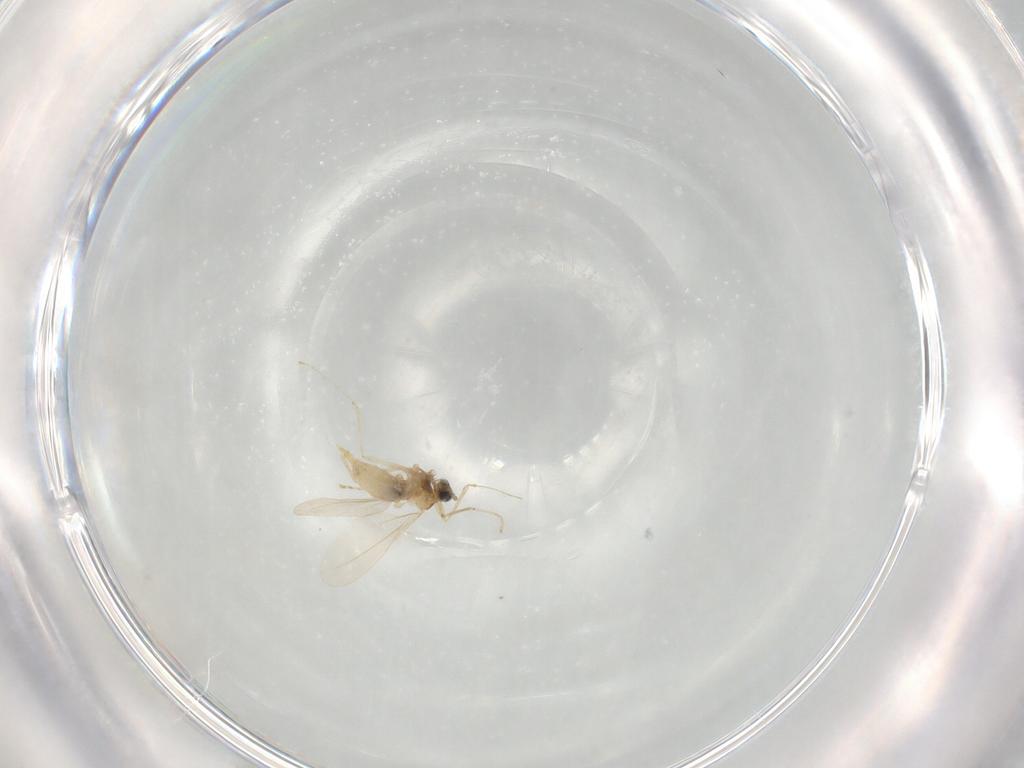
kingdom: Animalia
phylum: Arthropoda
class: Insecta
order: Diptera
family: Cecidomyiidae
